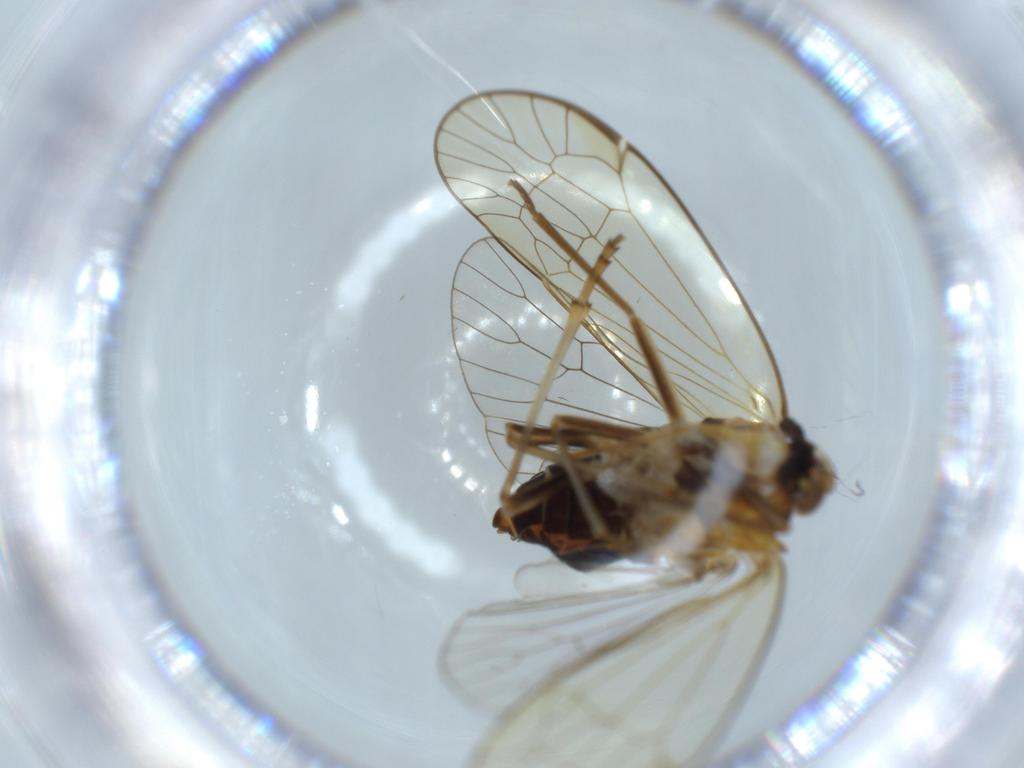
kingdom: Animalia
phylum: Arthropoda
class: Insecta
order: Hemiptera
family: Kinnaridae
